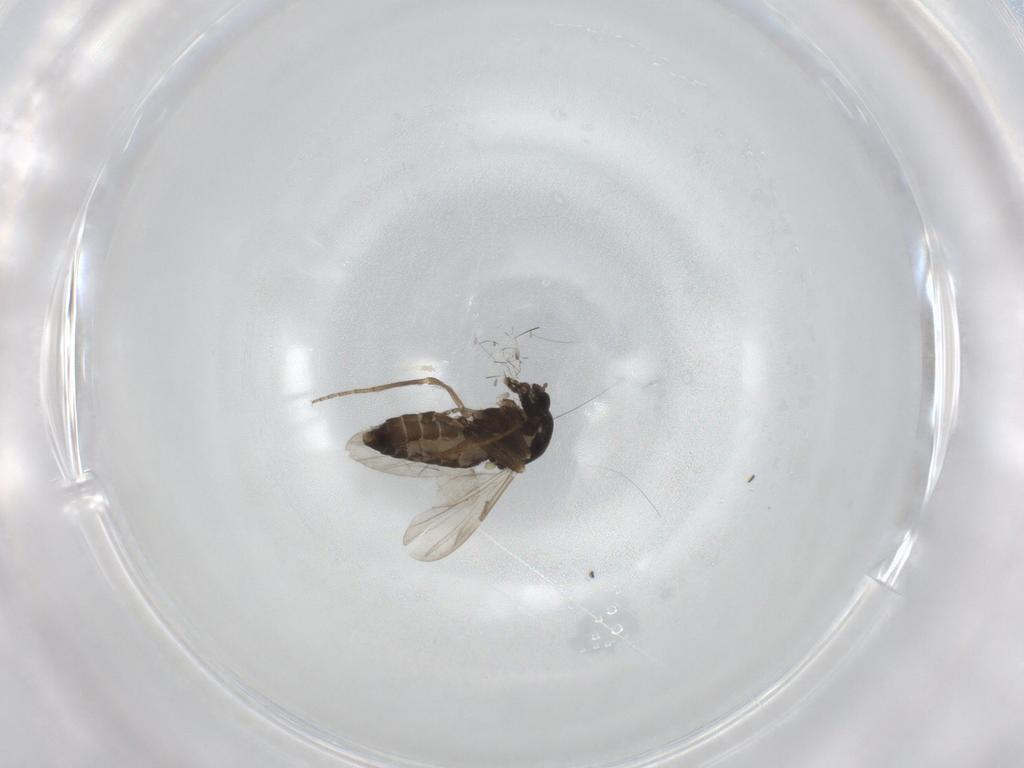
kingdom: Animalia
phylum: Arthropoda
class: Insecta
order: Diptera
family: Ceratopogonidae
